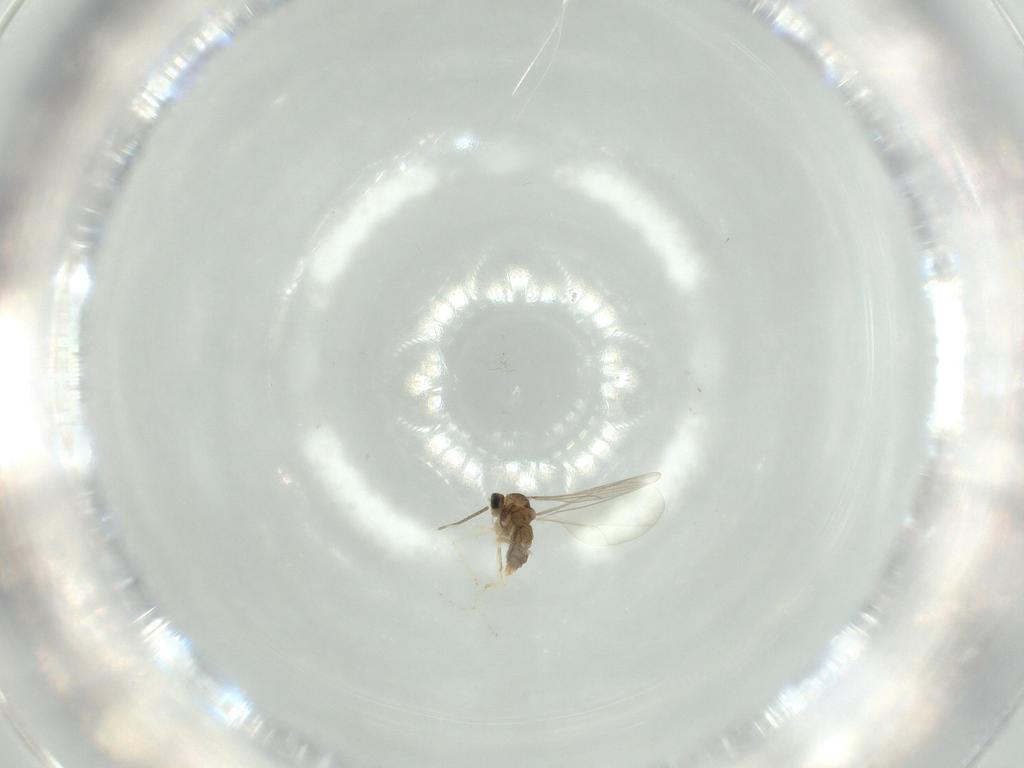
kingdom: Animalia
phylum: Arthropoda
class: Insecta
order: Diptera
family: Cecidomyiidae
